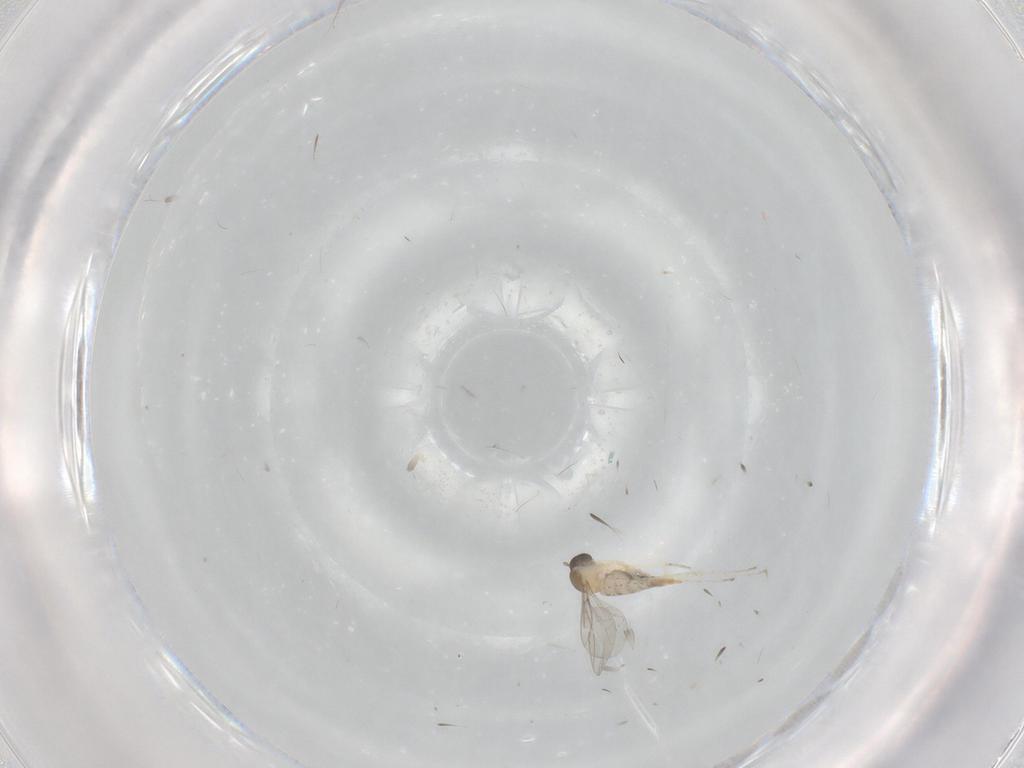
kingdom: Animalia
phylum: Arthropoda
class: Insecta
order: Diptera
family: Cecidomyiidae
